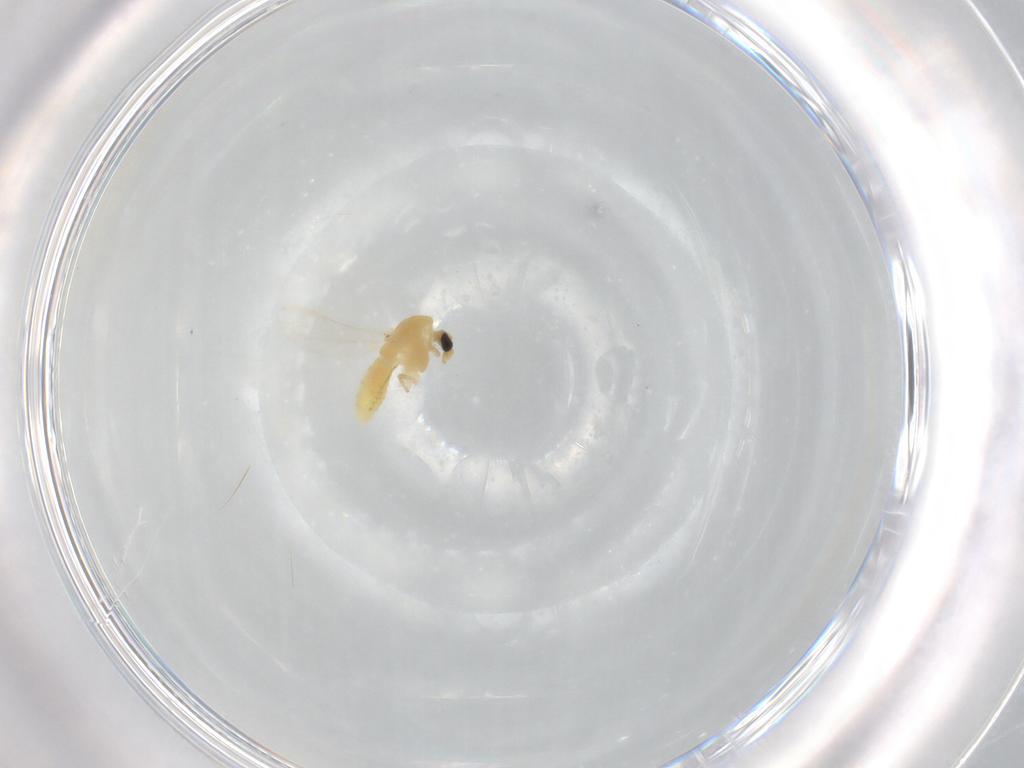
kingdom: Animalia
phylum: Arthropoda
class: Insecta
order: Diptera
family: Chironomidae
